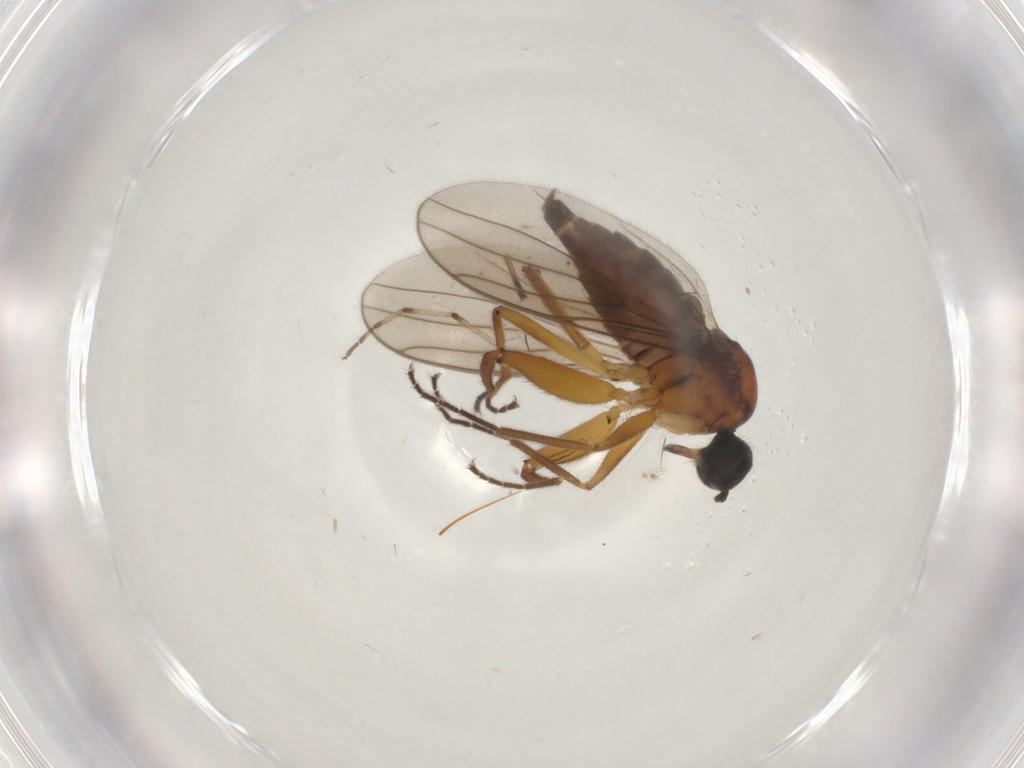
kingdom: Animalia
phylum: Arthropoda
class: Insecta
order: Diptera
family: Hybotidae
